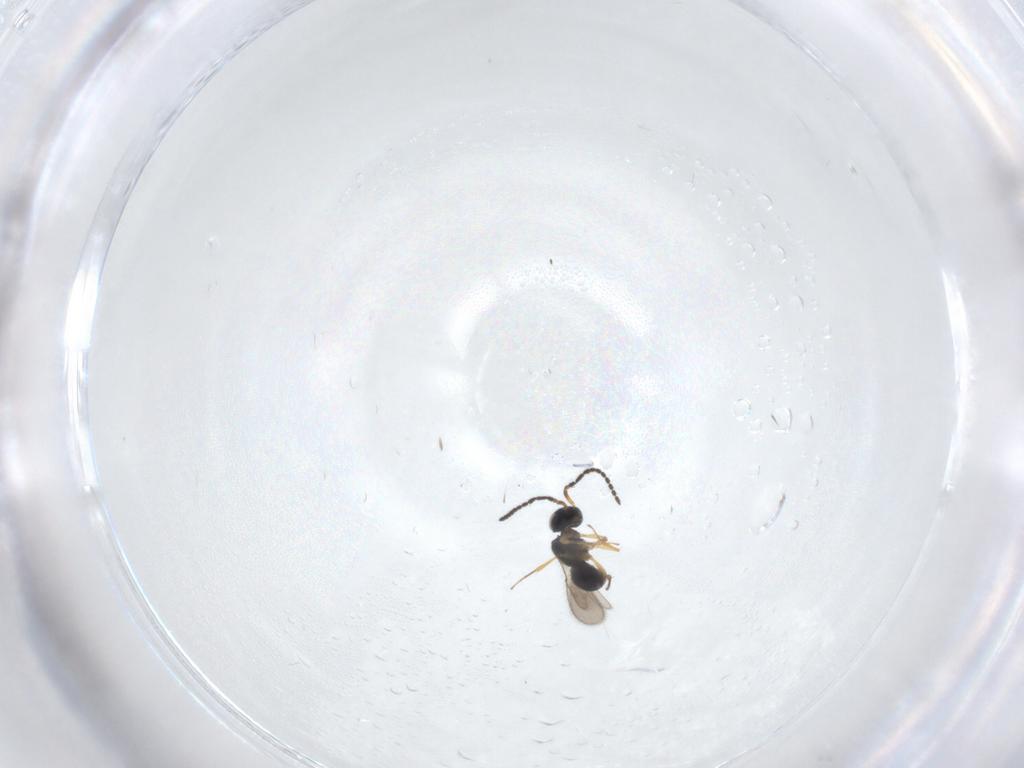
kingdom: Animalia
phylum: Arthropoda
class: Insecta
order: Hymenoptera
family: Scelionidae
